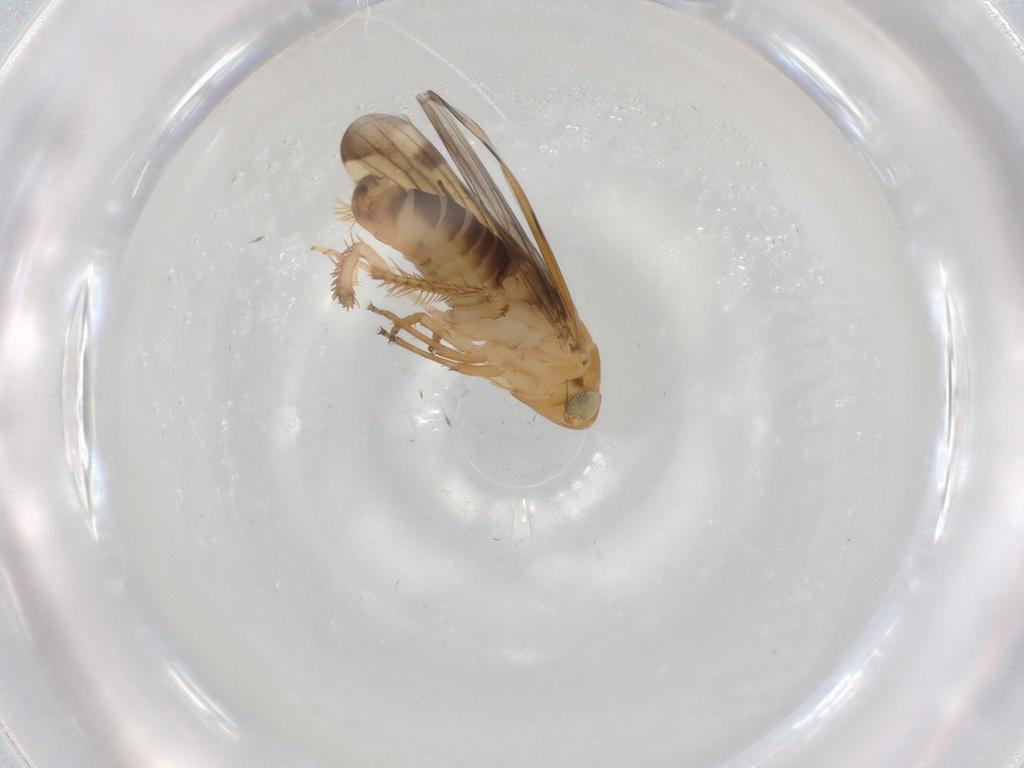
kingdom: Animalia
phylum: Arthropoda
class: Insecta
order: Hemiptera
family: Cicadellidae
